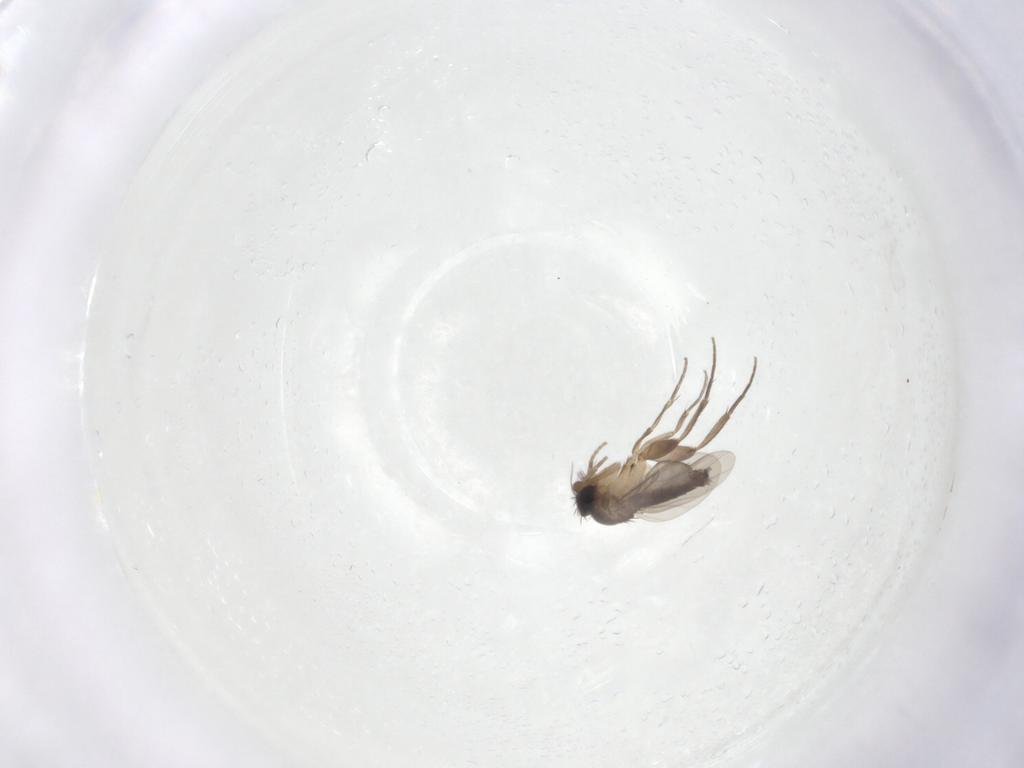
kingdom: Animalia
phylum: Arthropoda
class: Insecta
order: Diptera
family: Phoridae
